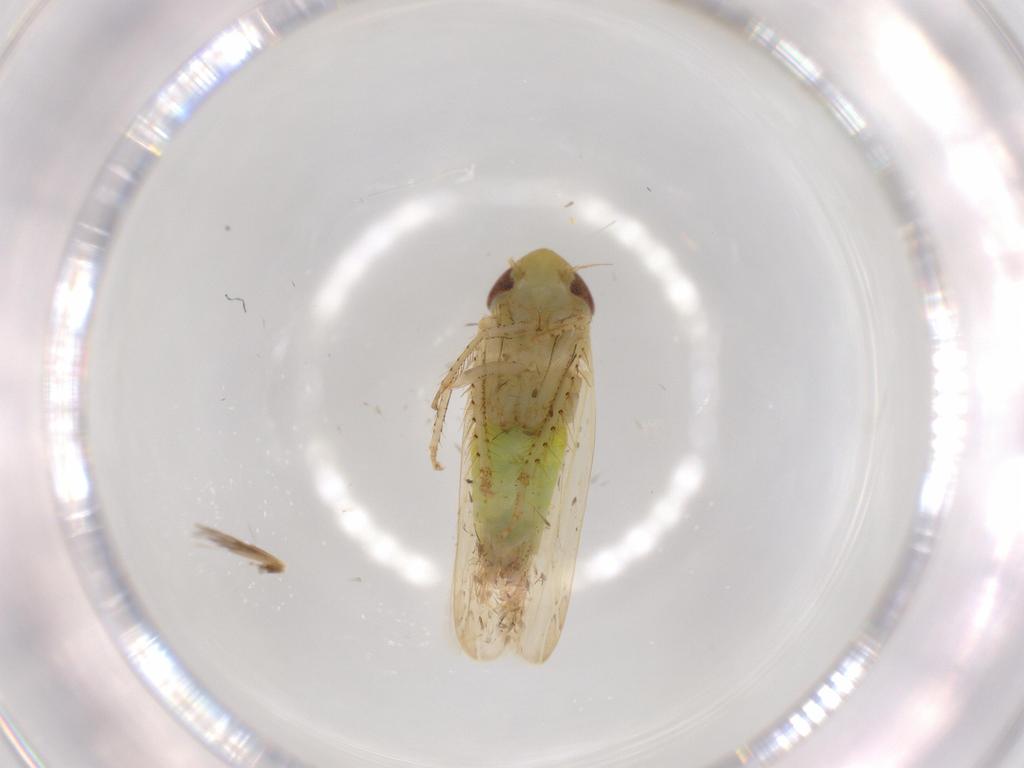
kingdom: Animalia
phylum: Arthropoda
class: Insecta
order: Hemiptera
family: Cicadellidae
